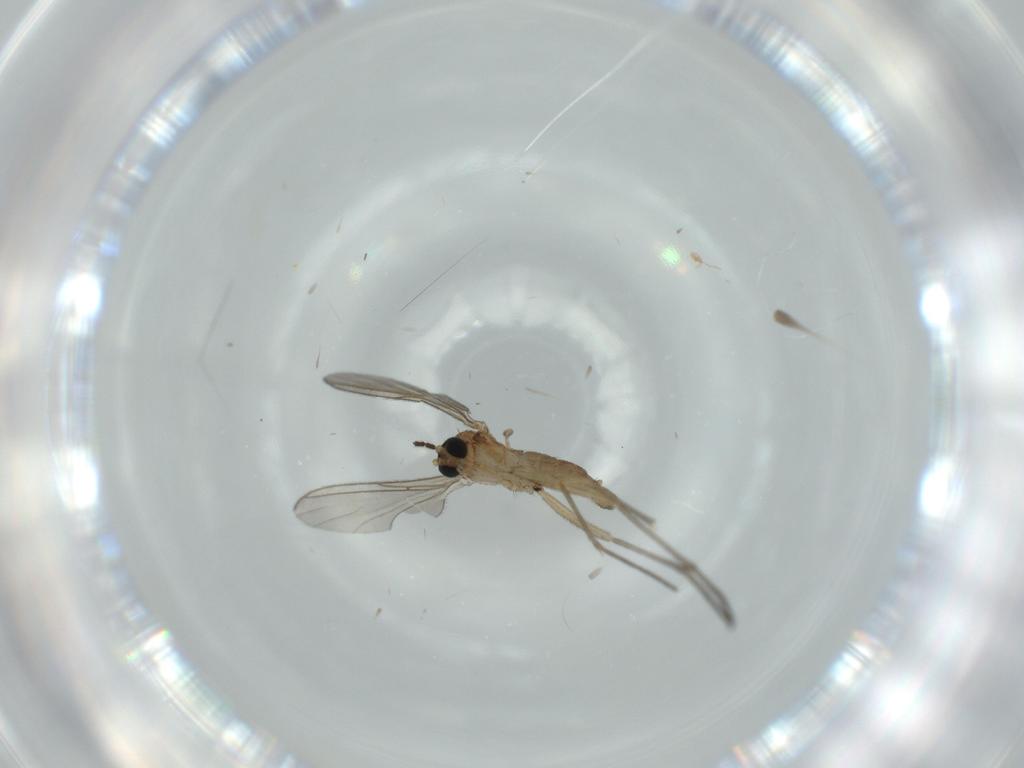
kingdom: Animalia
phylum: Arthropoda
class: Insecta
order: Diptera
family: Sciaridae
